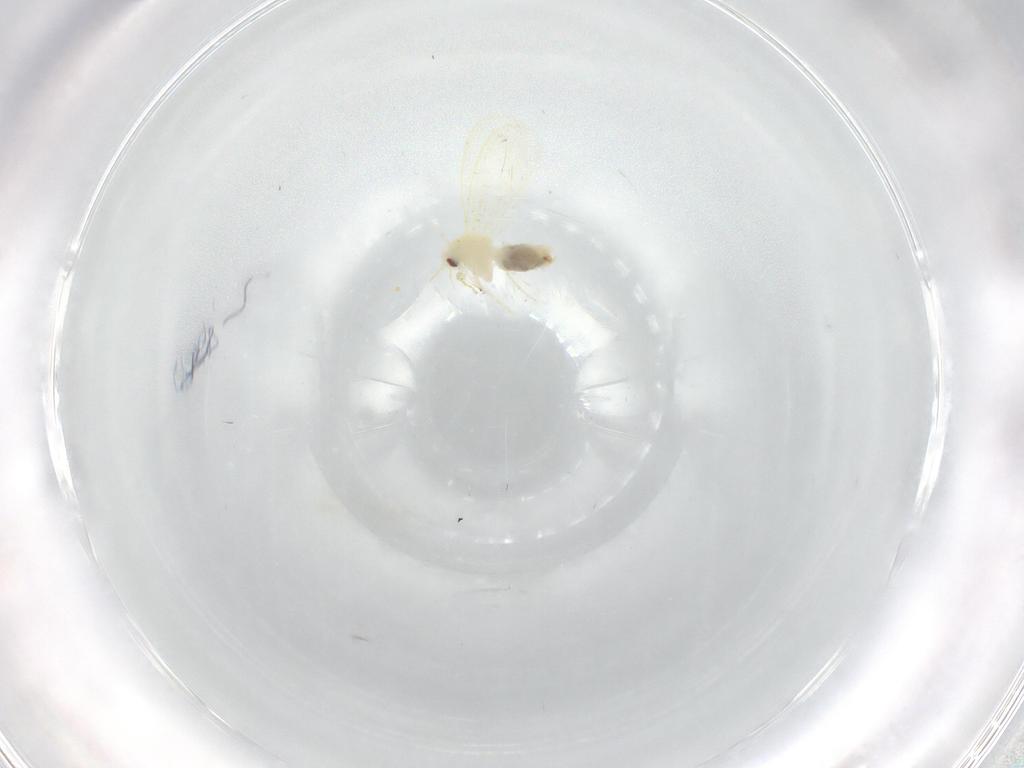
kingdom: Animalia
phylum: Arthropoda
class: Insecta
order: Hemiptera
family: Aleyrodidae
